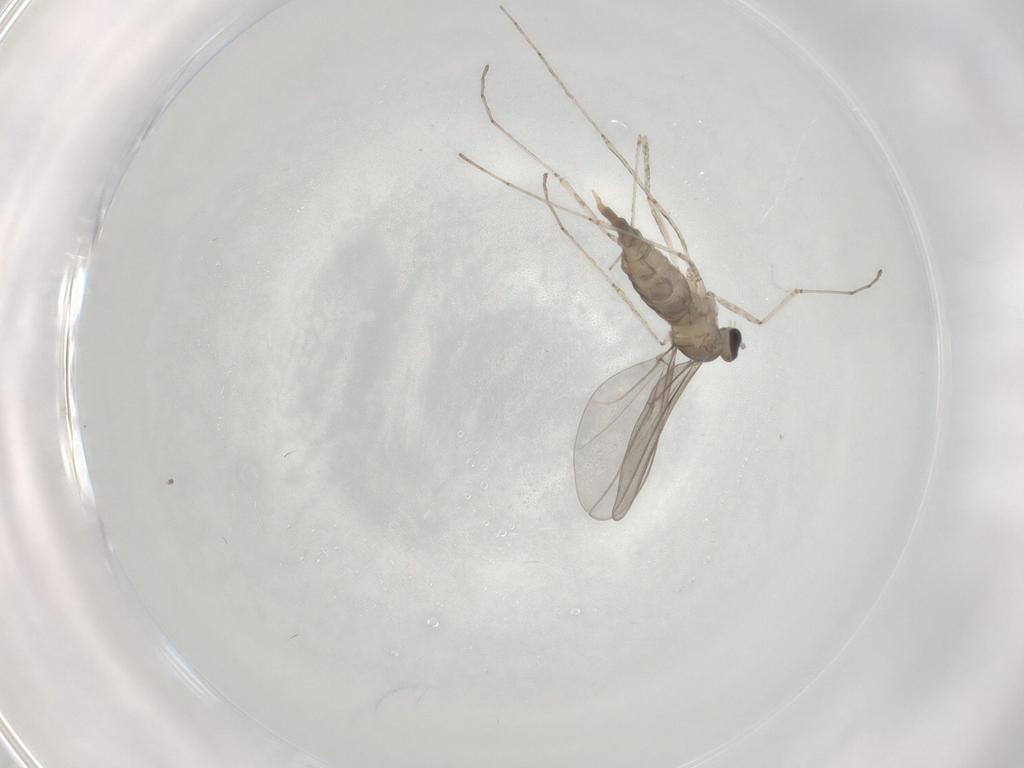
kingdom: Animalia
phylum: Arthropoda
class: Insecta
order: Diptera
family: Cecidomyiidae
